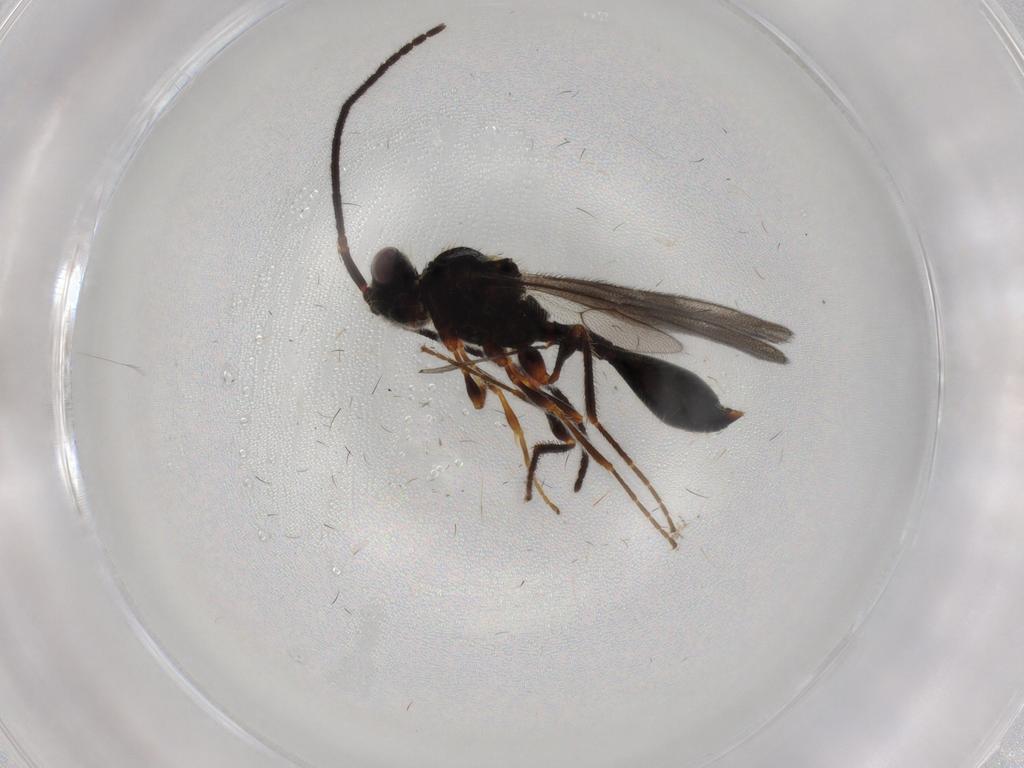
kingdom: Animalia
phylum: Arthropoda
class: Insecta
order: Hymenoptera
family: Diapriidae
